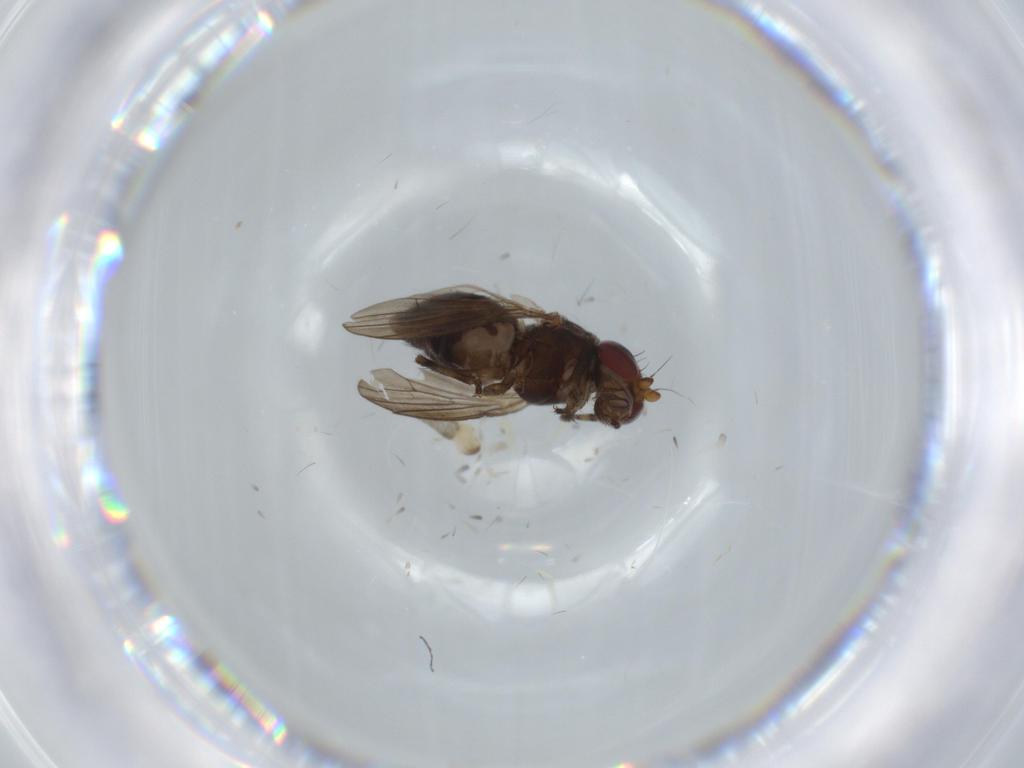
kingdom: Animalia
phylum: Arthropoda
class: Insecta
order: Diptera
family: Heleomyzidae
